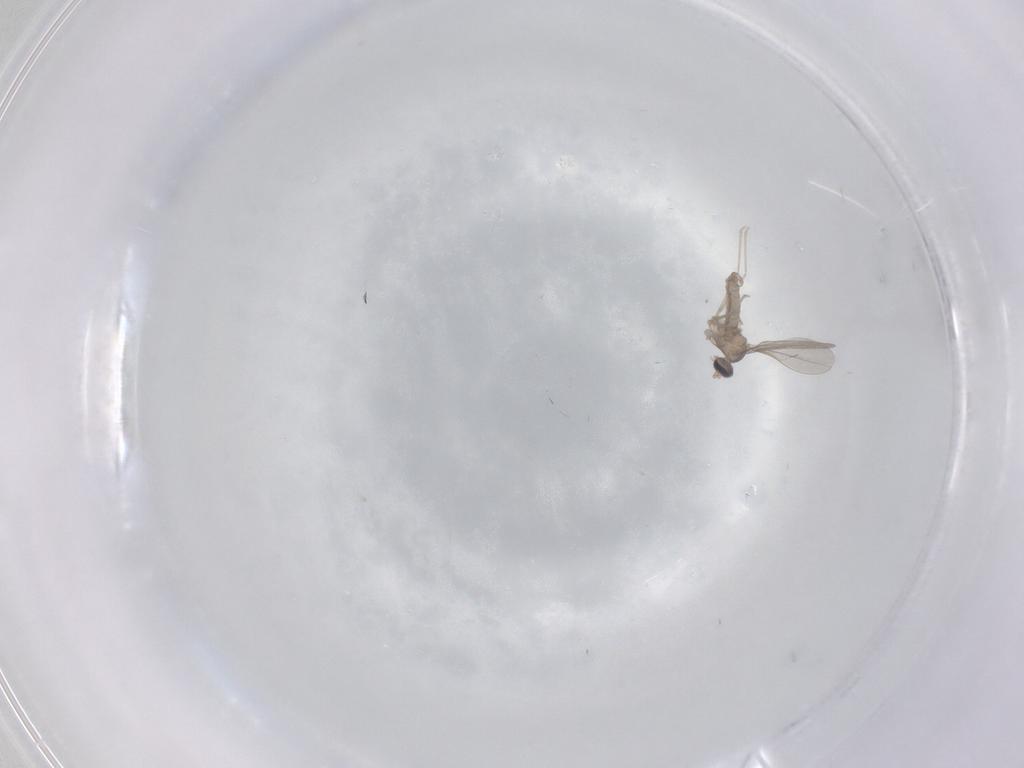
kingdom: Animalia
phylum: Arthropoda
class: Insecta
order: Diptera
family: Cecidomyiidae
